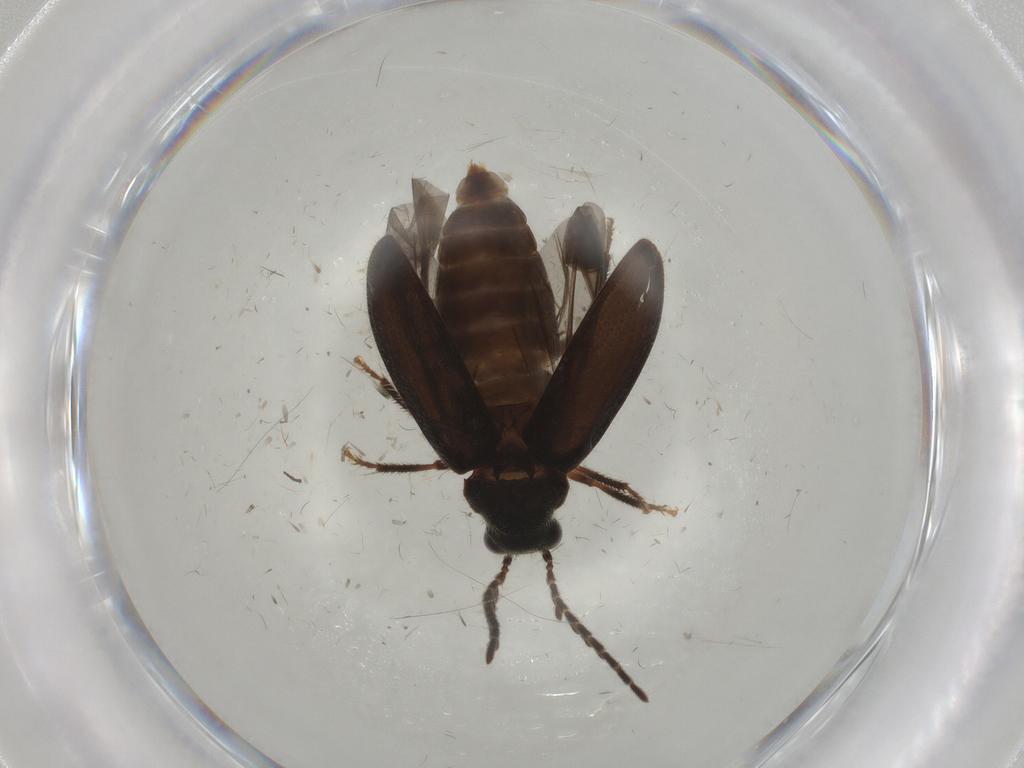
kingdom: Animalia
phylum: Arthropoda
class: Insecta
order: Coleoptera
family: Ptilodactylidae
